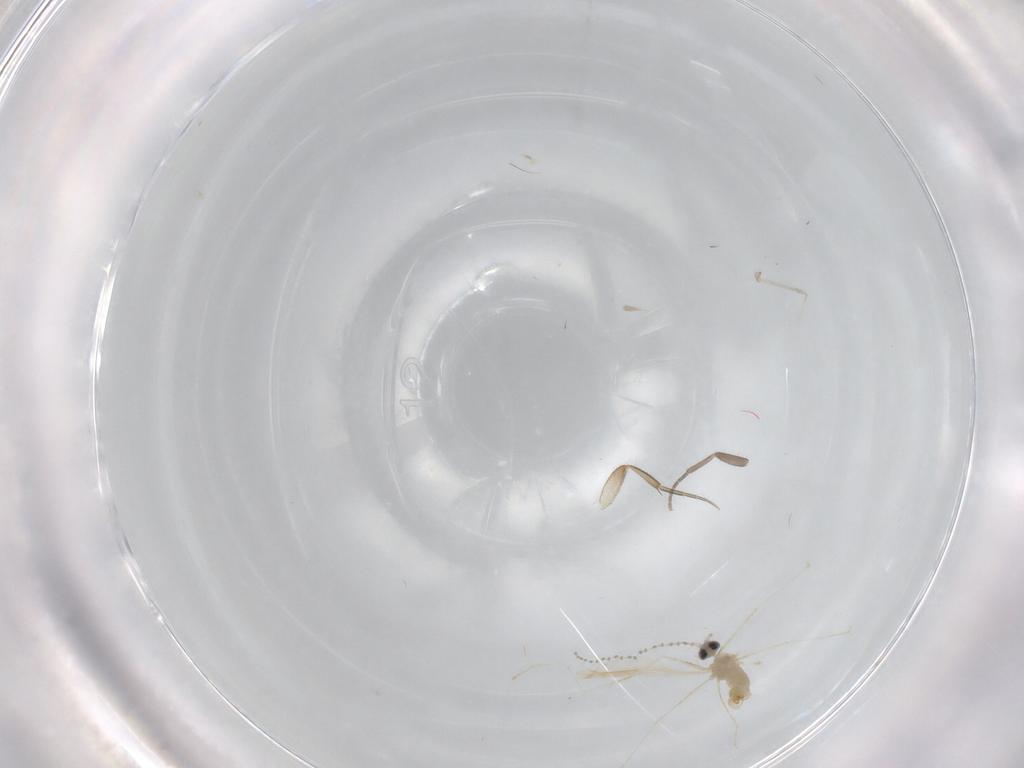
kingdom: Animalia
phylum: Arthropoda
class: Insecta
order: Diptera
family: Cecidomyiidae
